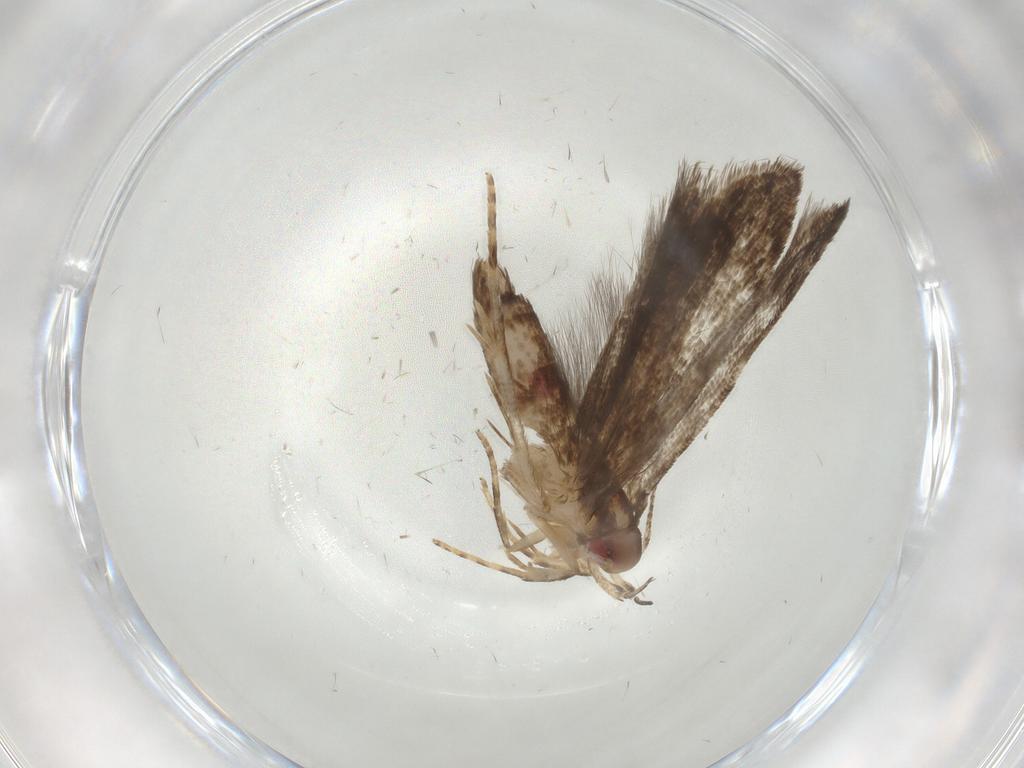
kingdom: Animalia
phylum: Arthropoda
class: Insecta
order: Lepidoptera
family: Gelechiidae
